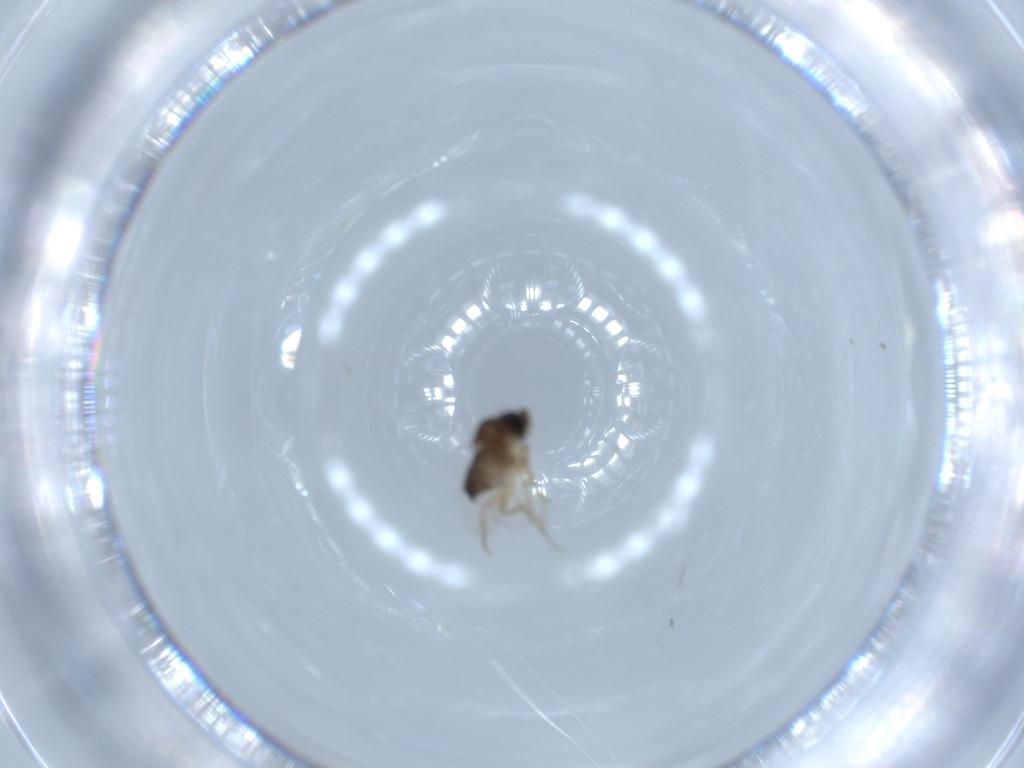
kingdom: Animalia
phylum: Arthropoda
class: Insecta
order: Diptera
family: Phoridae
